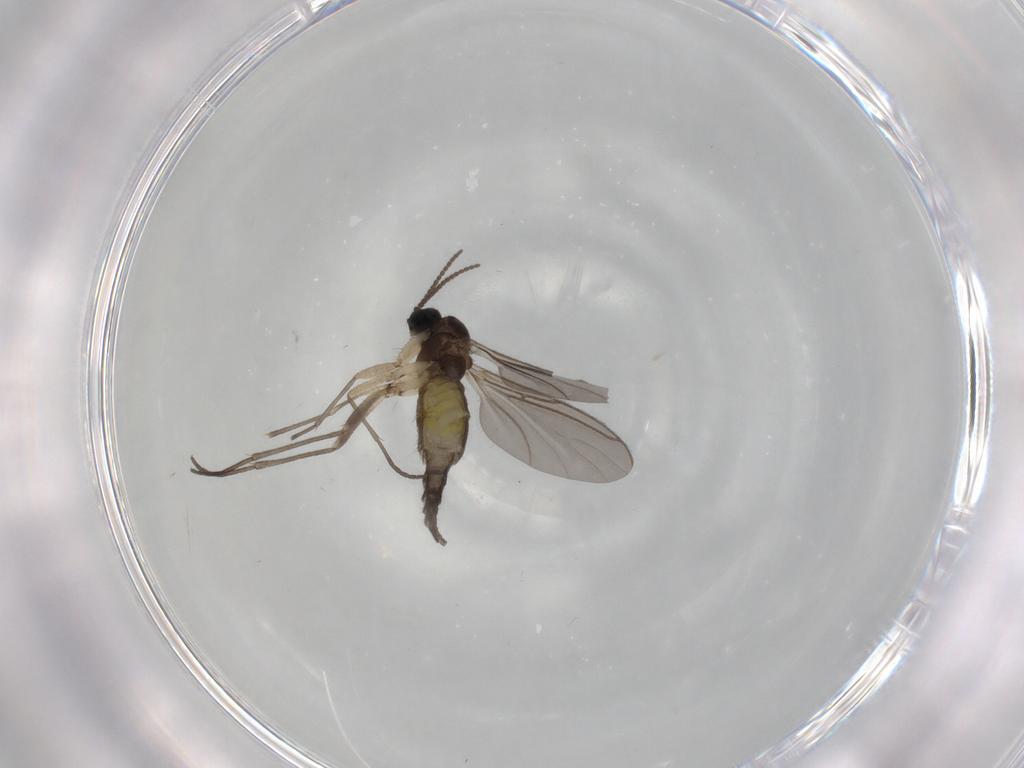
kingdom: Animalia
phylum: Arthropoda
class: Insecta
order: Diptera
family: Sciaridae
